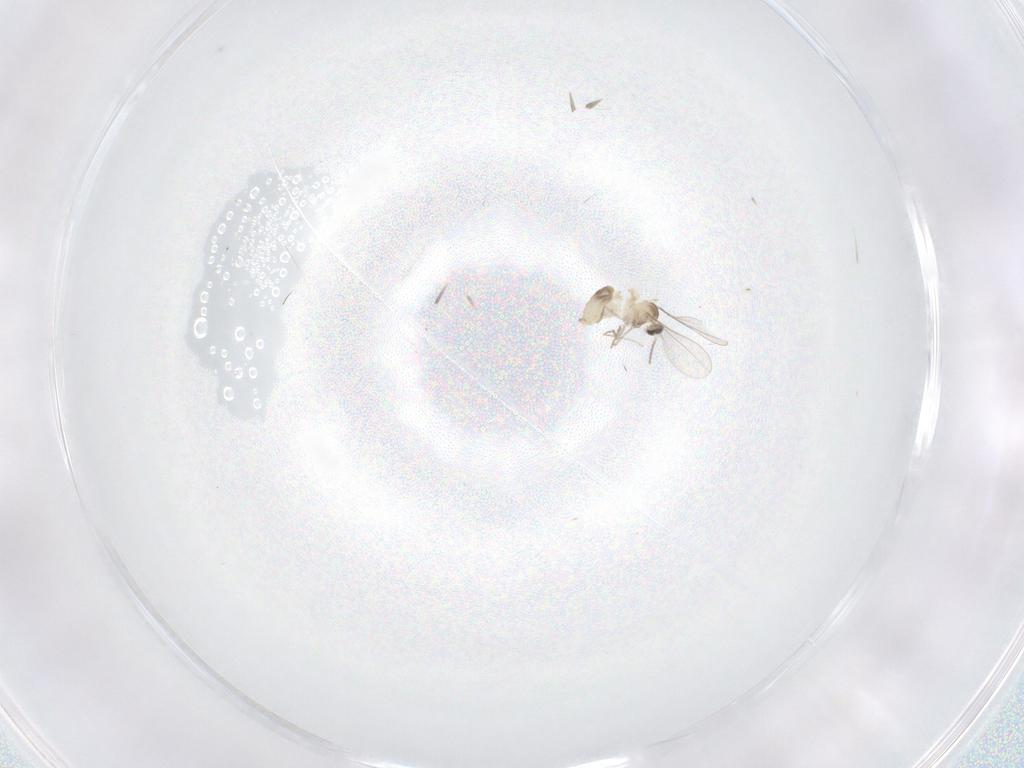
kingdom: Animalia
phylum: Arthropoda
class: Insecta
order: Diptera
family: Cecidomyiidae
